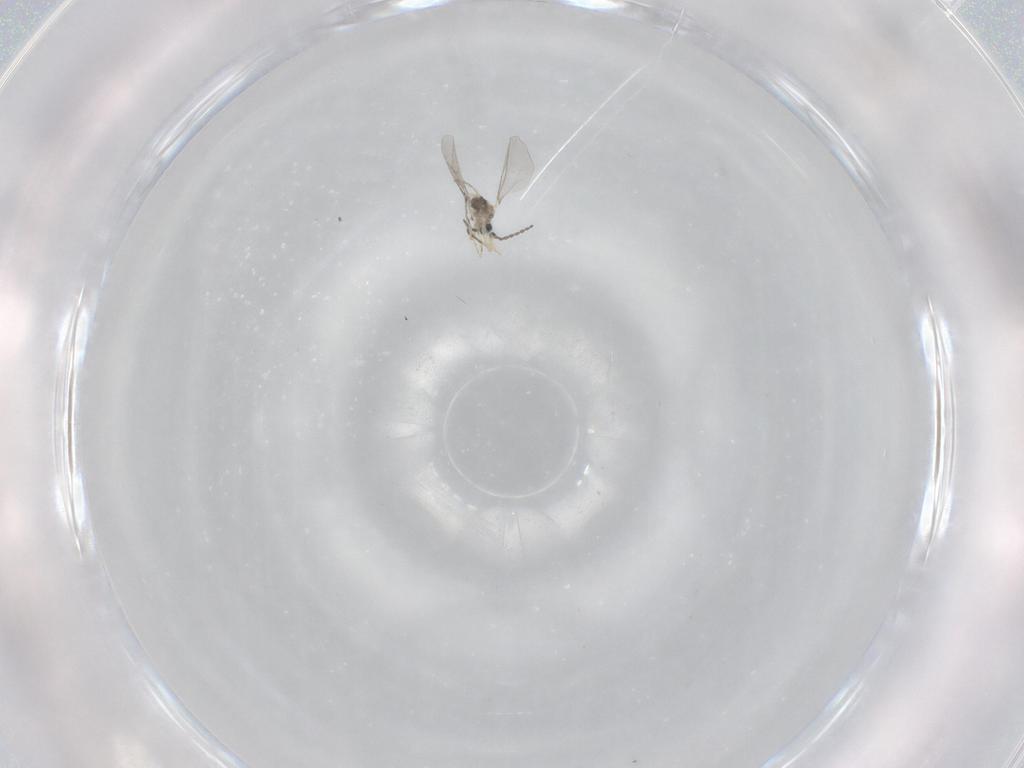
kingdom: Animalia
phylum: Arthropoda
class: Insecta
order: Diptera
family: Cecidomyiidae
